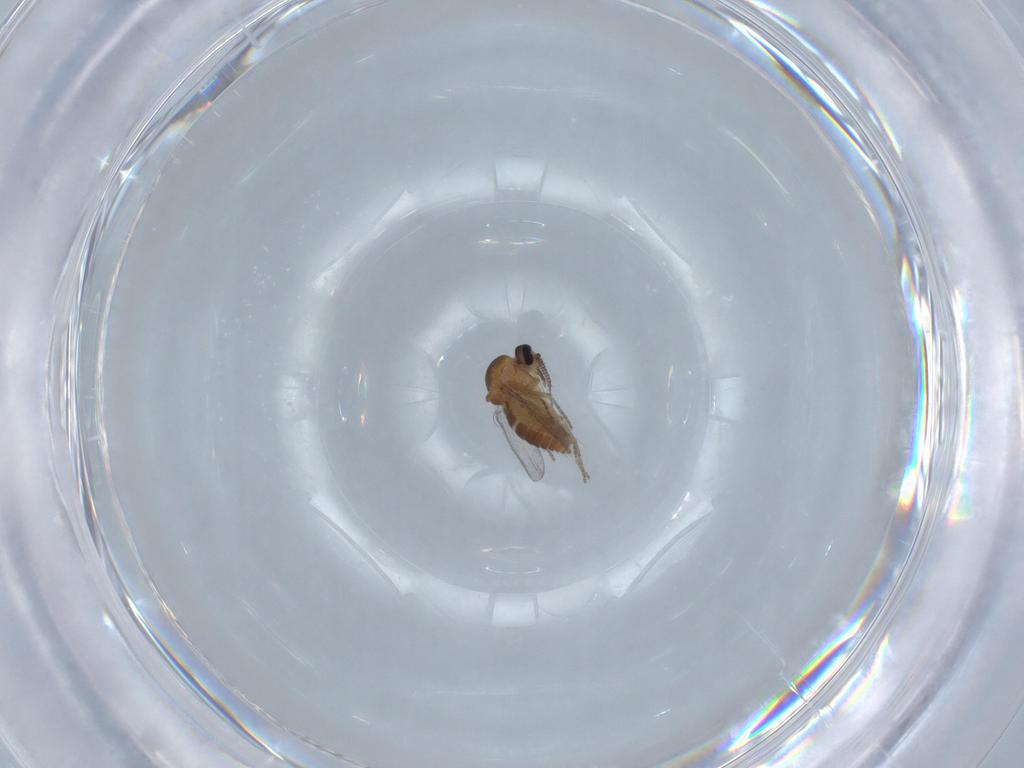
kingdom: Animalia
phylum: Arthropoda
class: Insecta
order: Diptera
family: Ceratopogonidae
